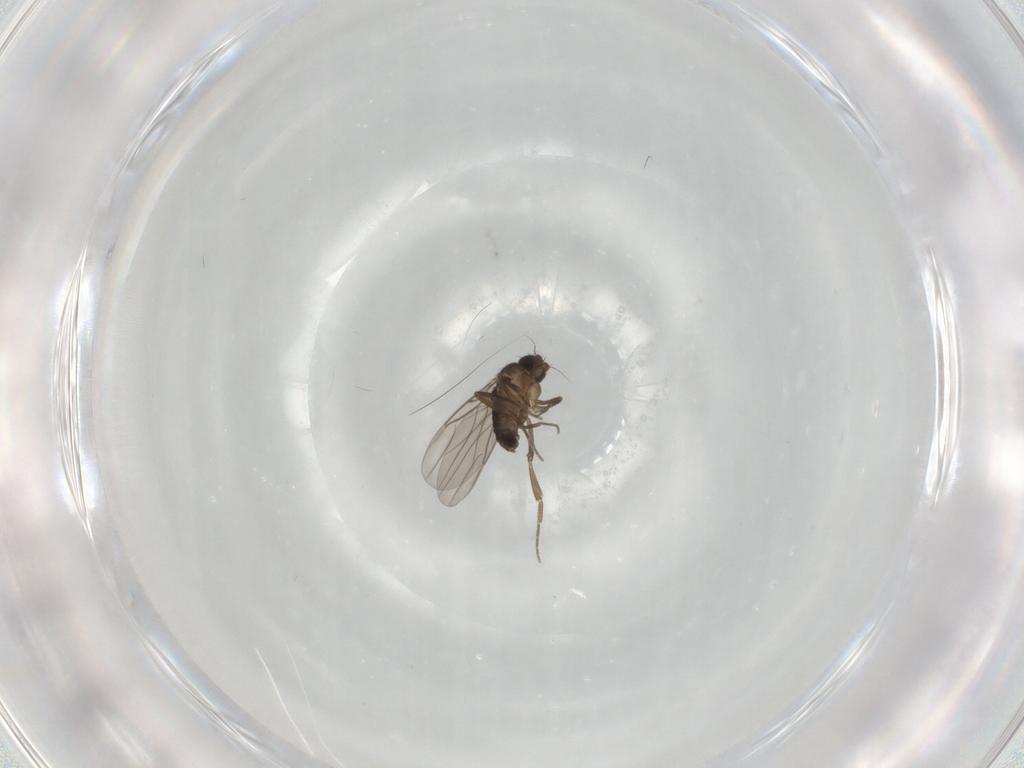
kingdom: Animalia
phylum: Arthropoda
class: Insecta
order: Diptera
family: Phoridae
